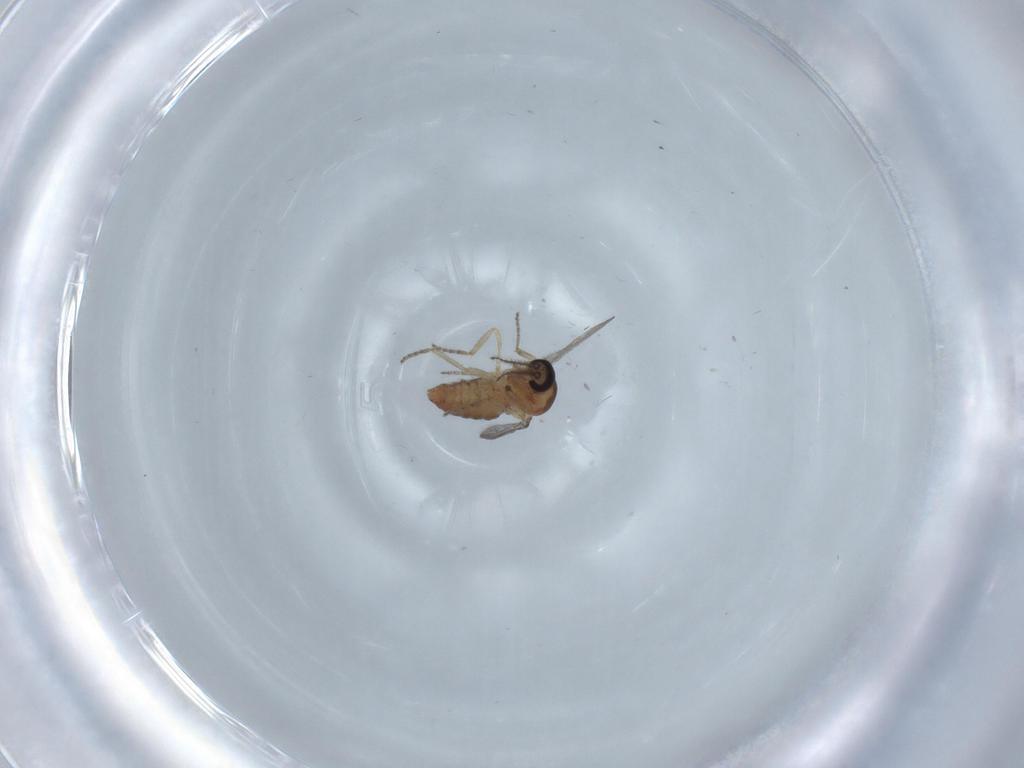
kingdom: Animalia
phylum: Arthropoda
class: Insecta
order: Diptera
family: Ceratopogonidae
